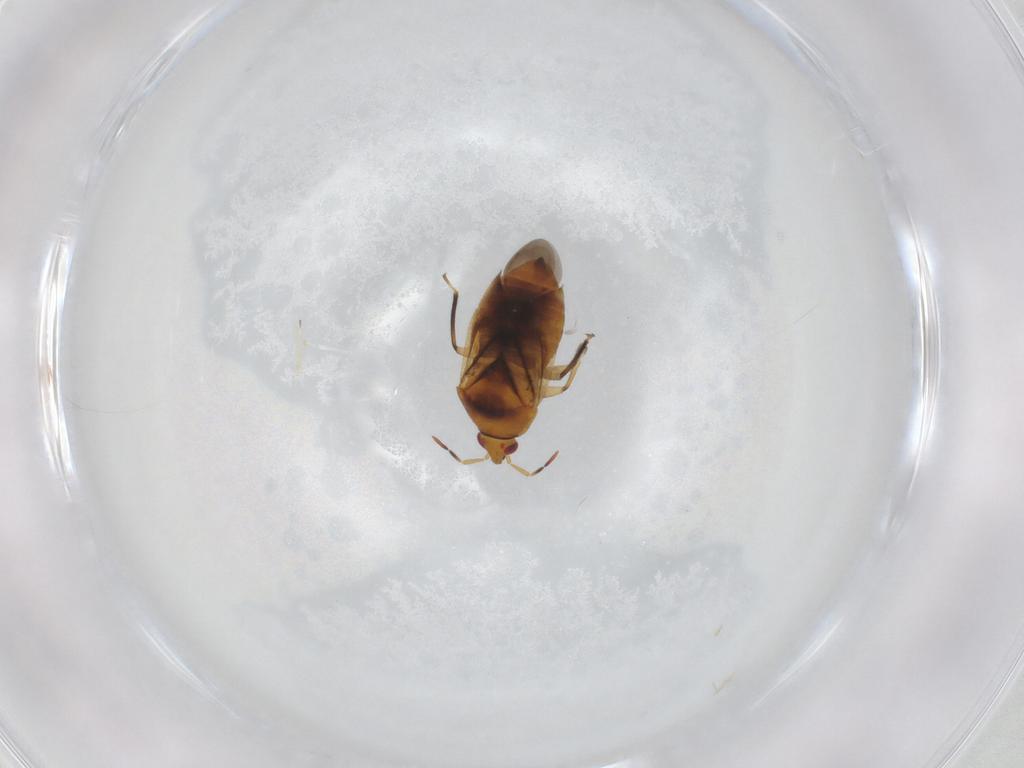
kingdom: Animalia
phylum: Arthropoda
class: Insecta
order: Hemiptera
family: Anthocoridae
